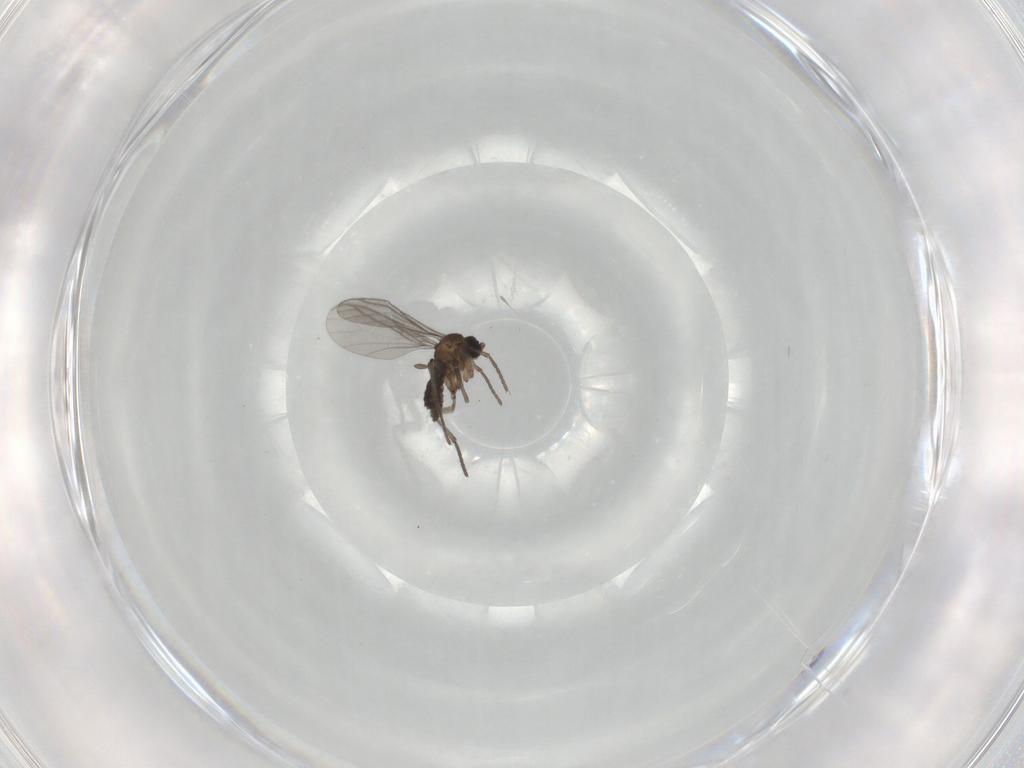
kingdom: Animalia
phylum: Arthropoda
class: Insecta
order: Diptera
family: Sciaridae
